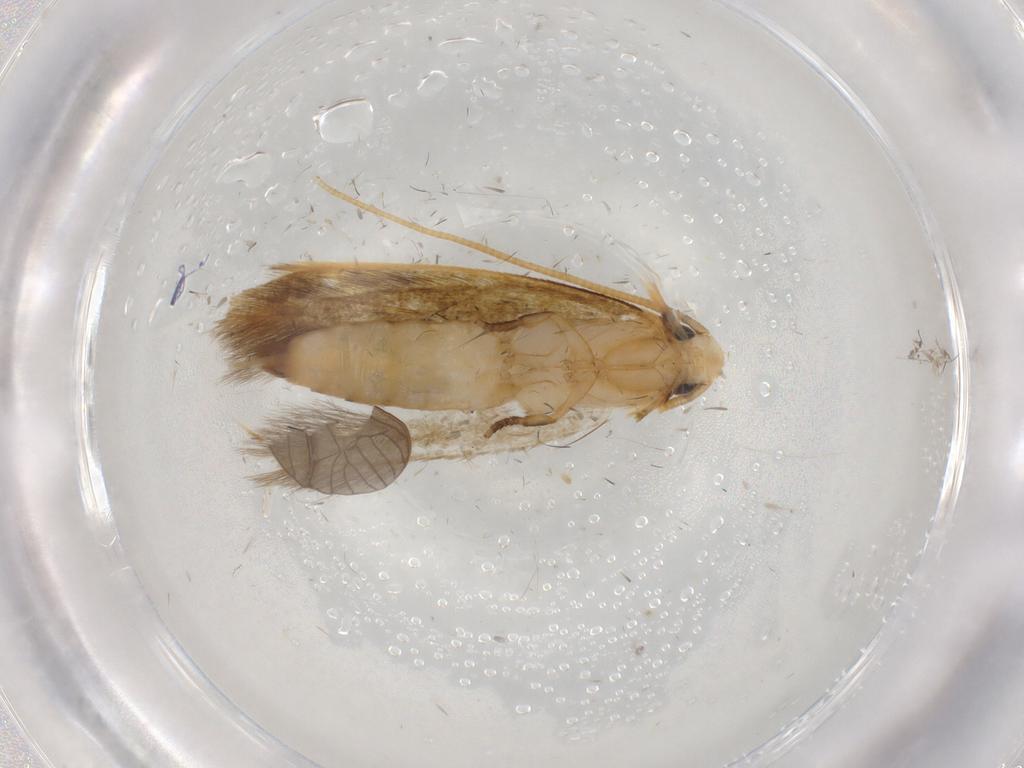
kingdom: Animalia
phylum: Arthropoda
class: Insecta
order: Lepidoptera
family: Tineidae
